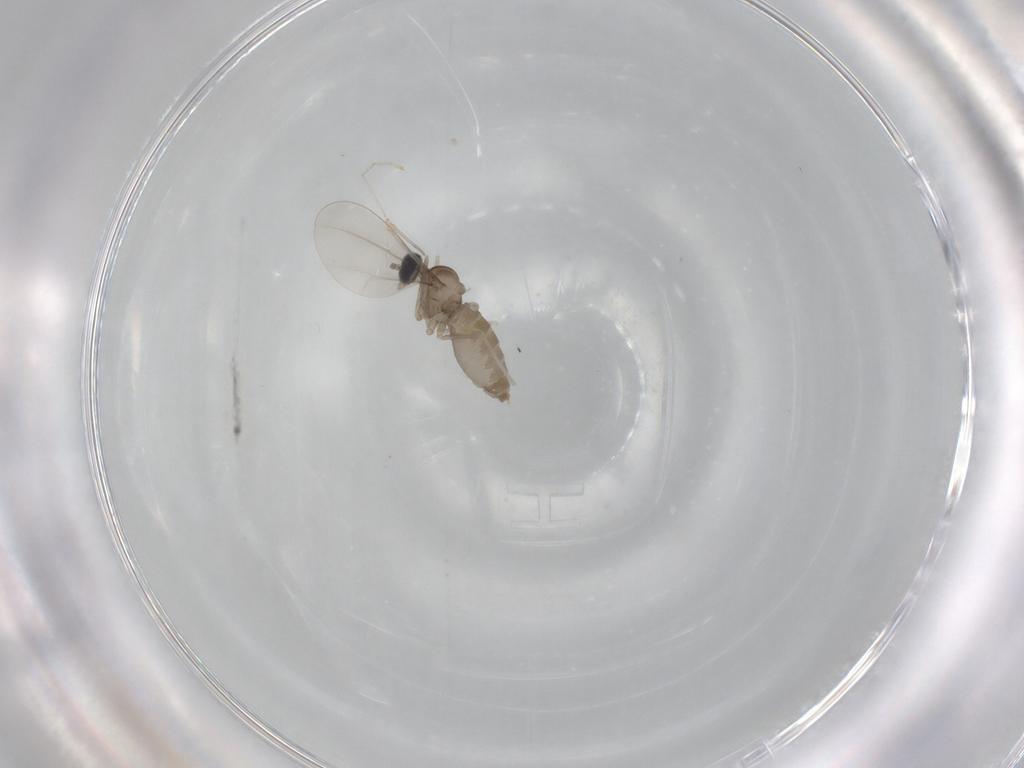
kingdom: Animalia
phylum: Arthropoda
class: Insecta
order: Diptera
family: Cecidomyiidae
